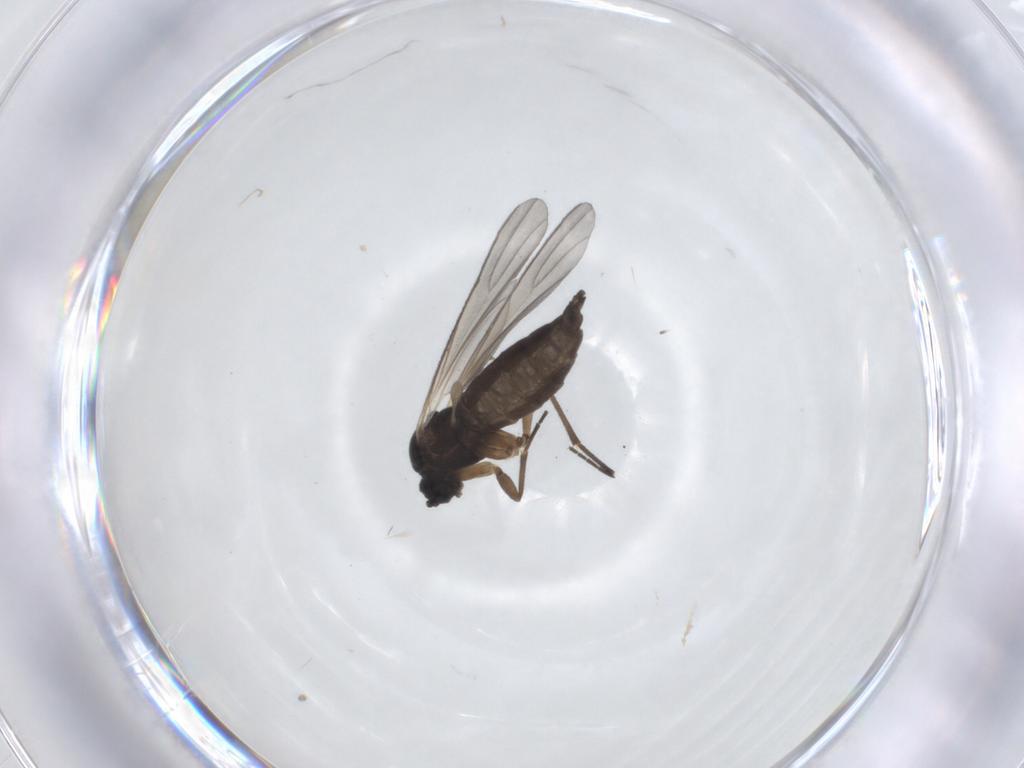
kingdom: Animalia
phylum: Arthropoda
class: Insecta
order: Diptera
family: Sciaridae
